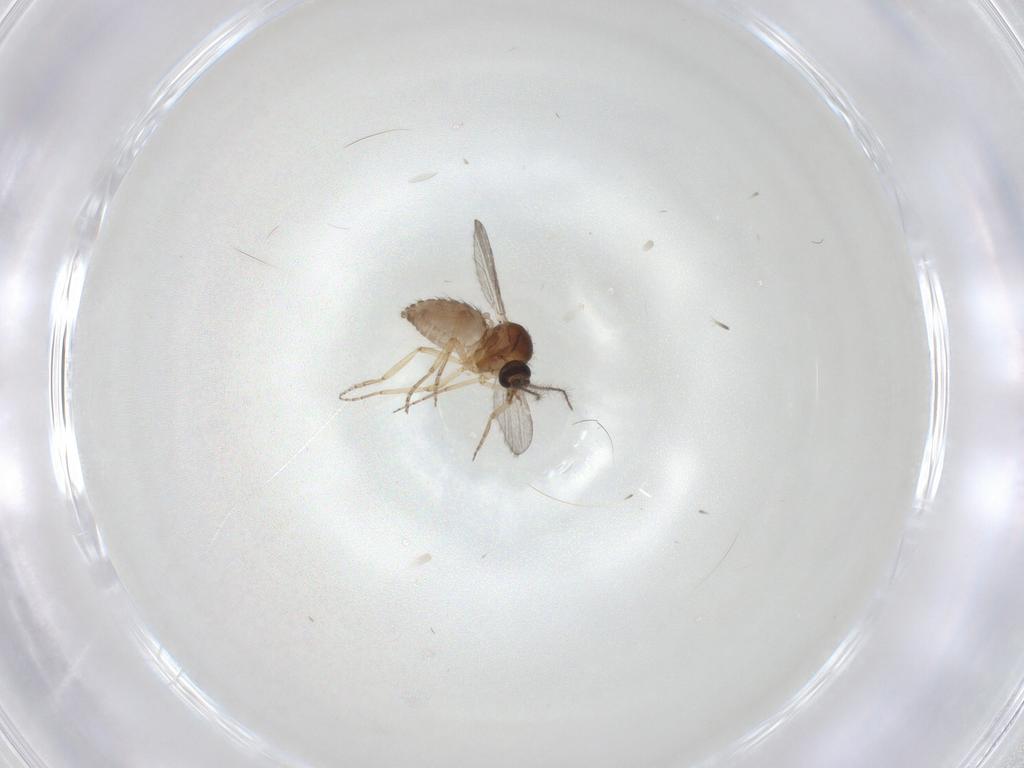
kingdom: Animalia
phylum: Arthropoda
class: Insecta
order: Diptera
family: Ceratopogonidae
